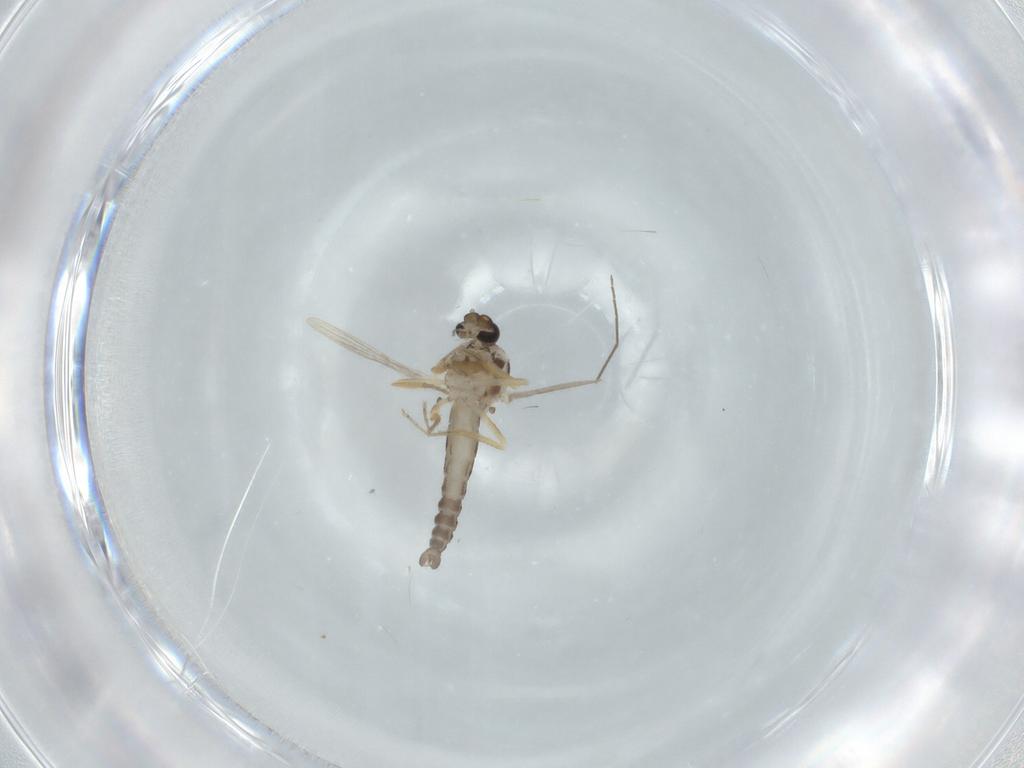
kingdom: Animalia
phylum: Arthropoda
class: Insecta
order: Diptera
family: Ceratopogonidae
